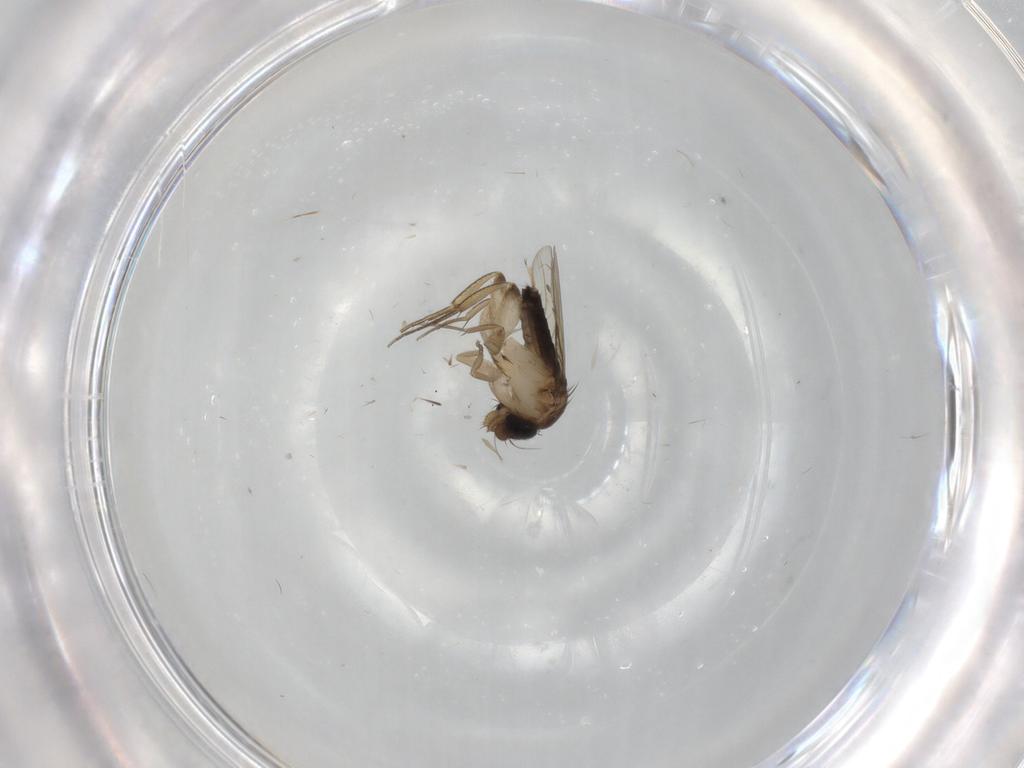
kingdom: Animalia
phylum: Arthropoda
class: Insecta
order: Diptera
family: Phoridae
